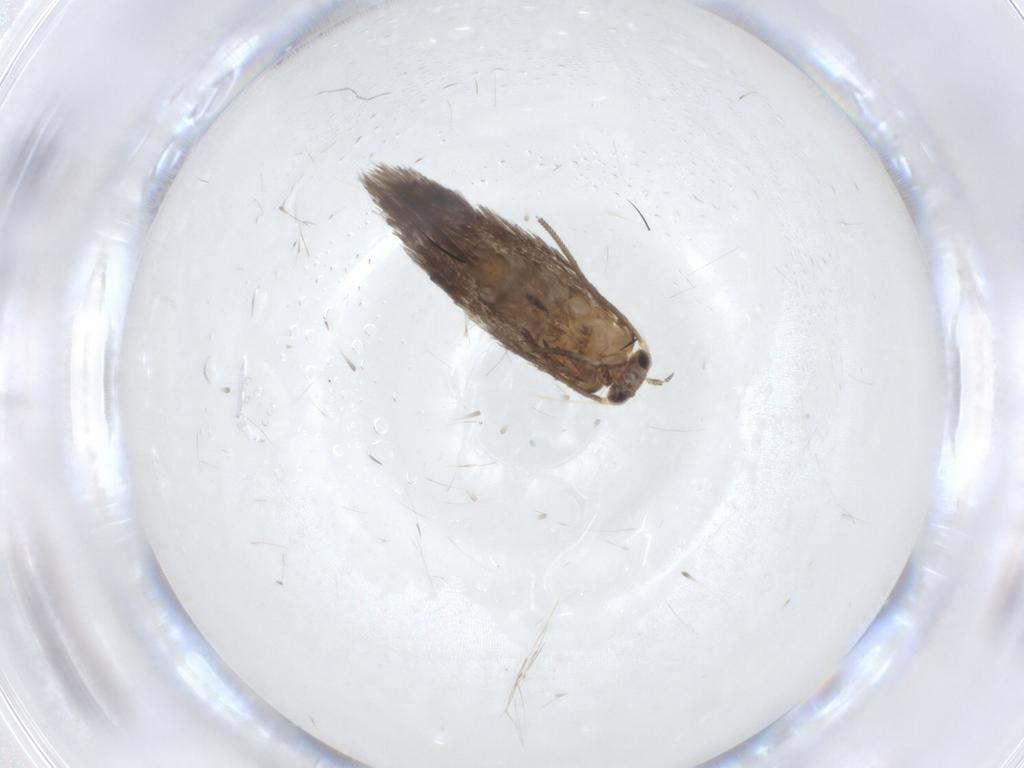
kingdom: Animalia
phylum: Arthropoda
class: Insecta
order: Lepidoptera
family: Nepticulidae
